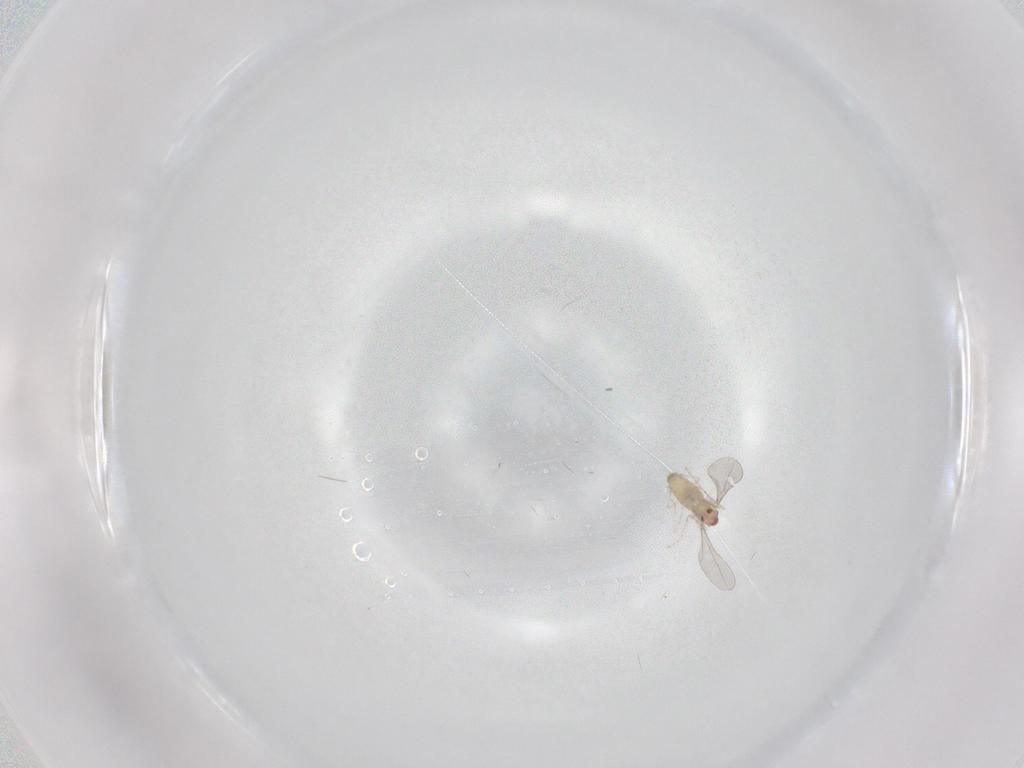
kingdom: Animalia
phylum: Arthropoda
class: Insecta
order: Diptera
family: Cecidomyiidae
